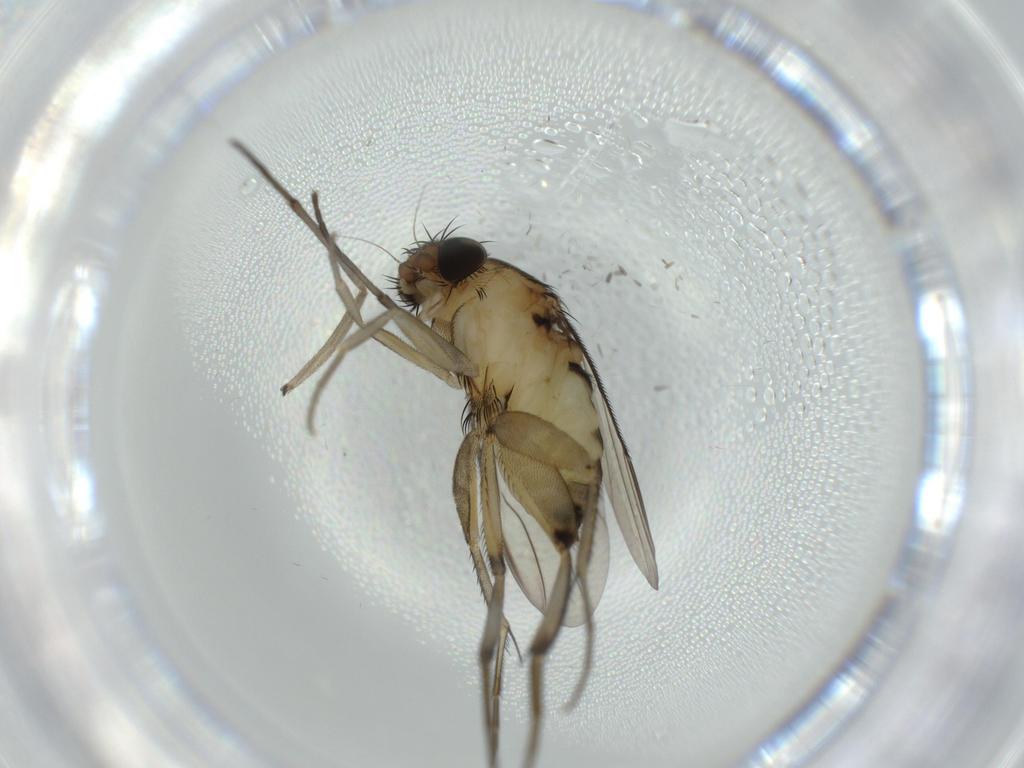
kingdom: Animalia
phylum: Arthropoda
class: Insecta
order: Diptera
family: Phoridae
